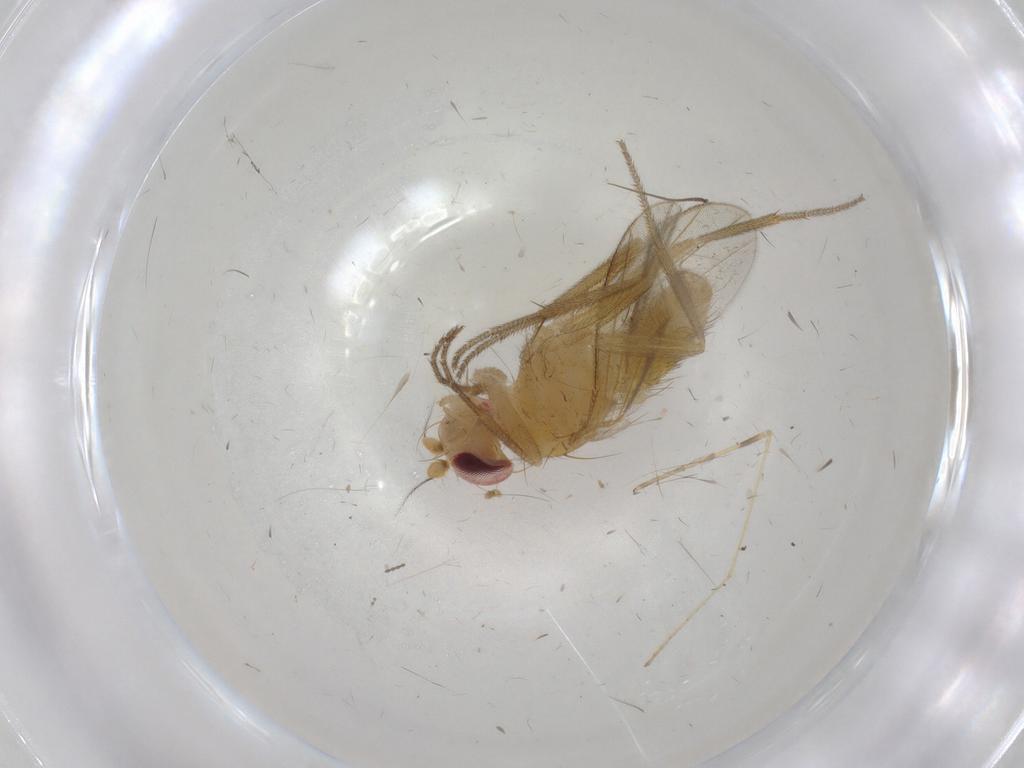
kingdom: Animalia
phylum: Arthropoda
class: Insecta
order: Diptera
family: Clusiidae
